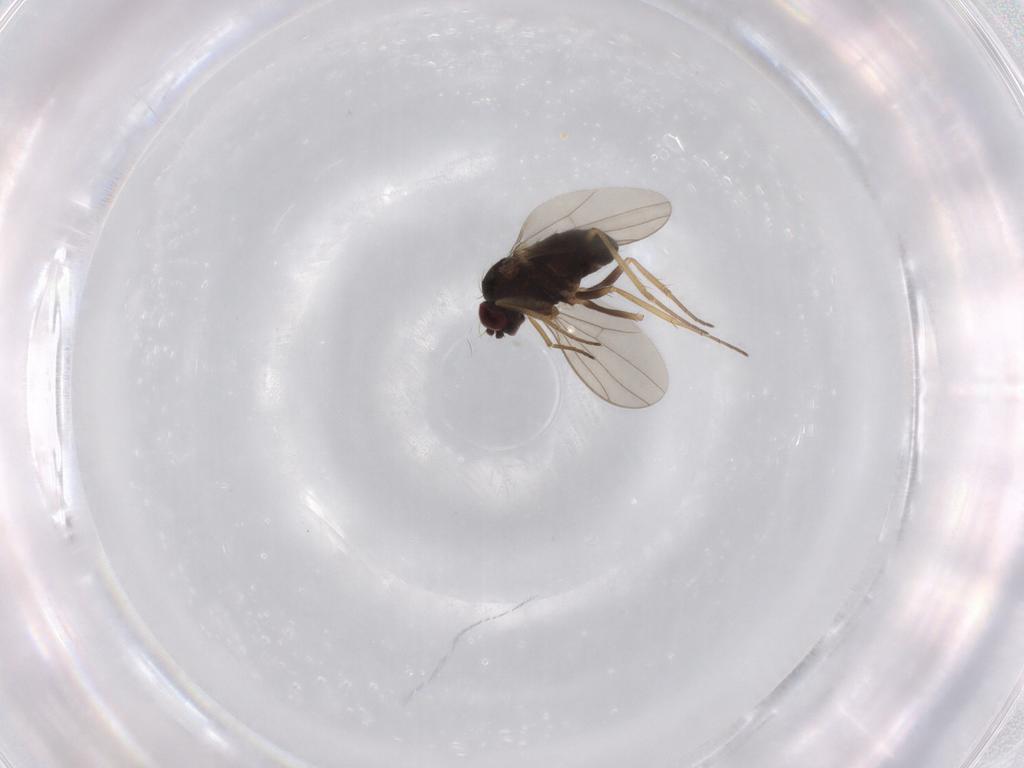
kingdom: Animalia
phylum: Arthropoda
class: Insecta
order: Diptera
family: Dolichopodidae
